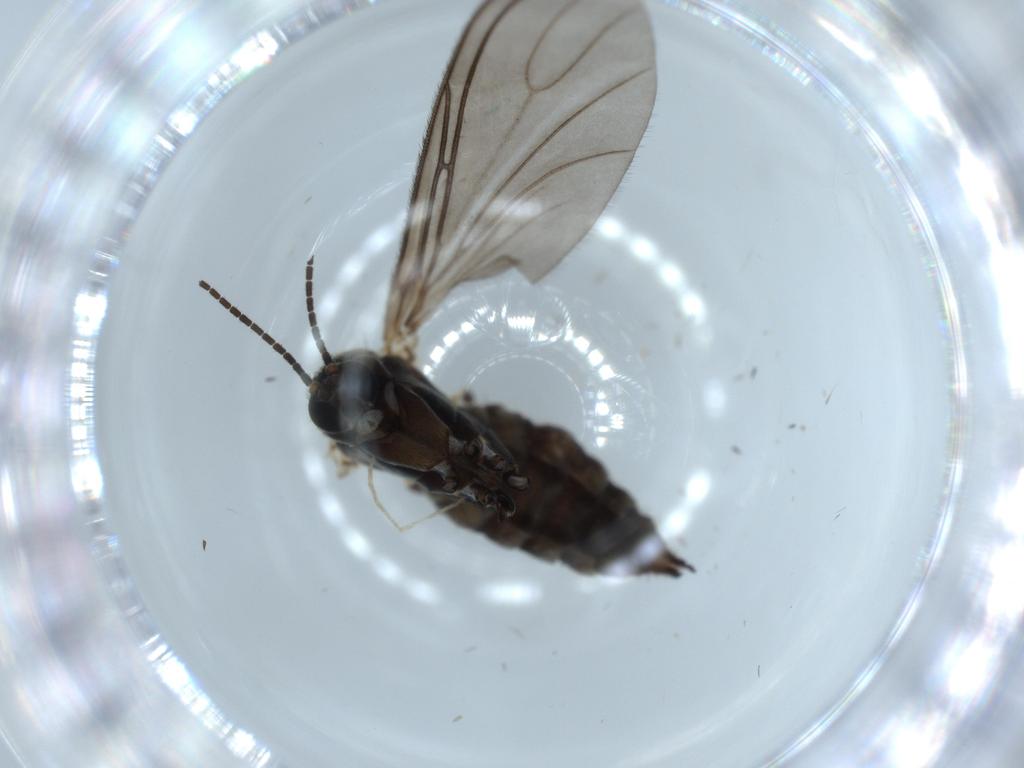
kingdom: Animalia
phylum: Arthropoda
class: Insecta
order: Diptera
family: Sciaridae
